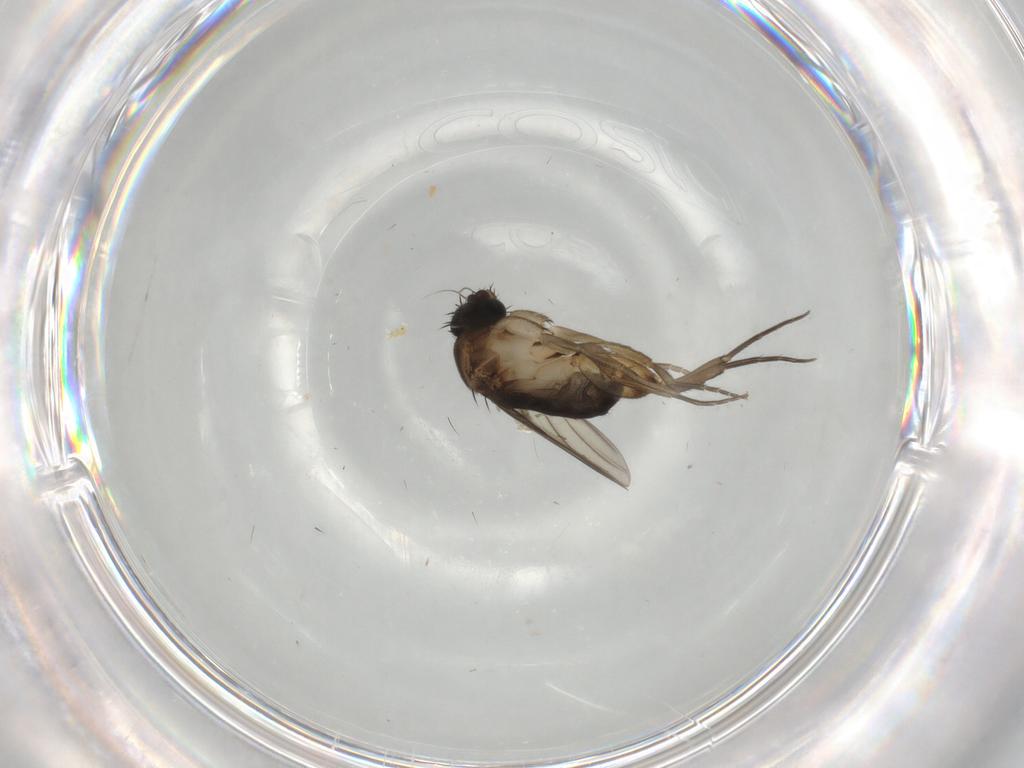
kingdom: Animalia
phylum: Arthropoda
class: Insecta
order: Diptera
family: Phoridae
